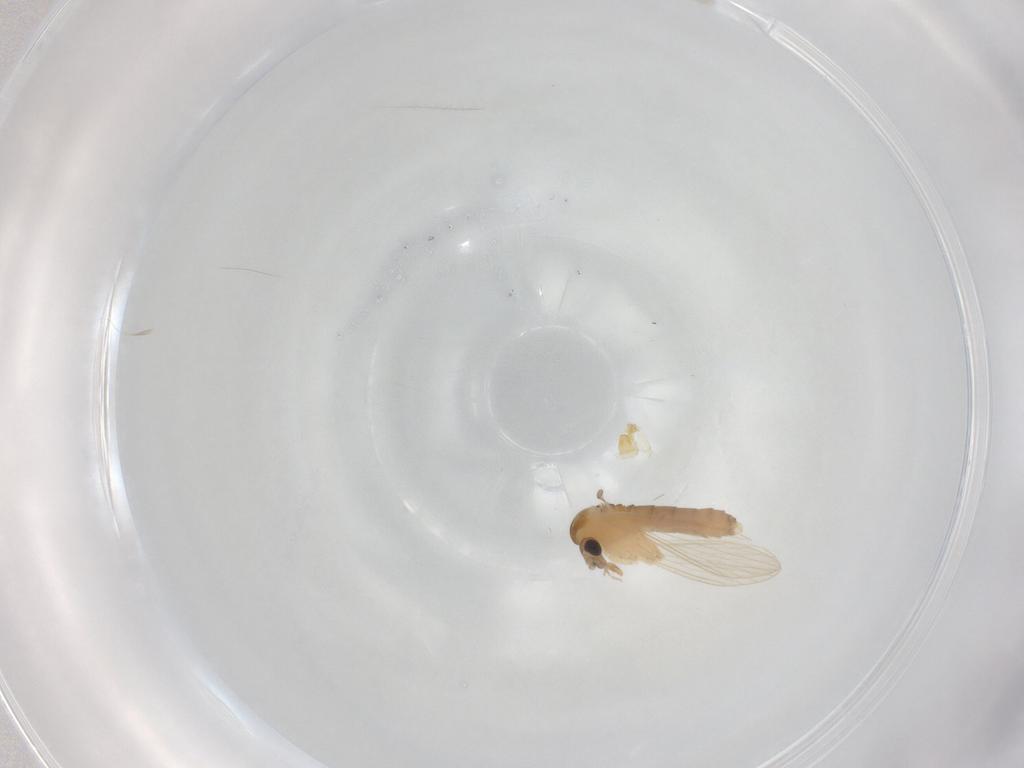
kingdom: Animalia
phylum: Arthropoda
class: Insecta
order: Diptera
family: Psychodidae
